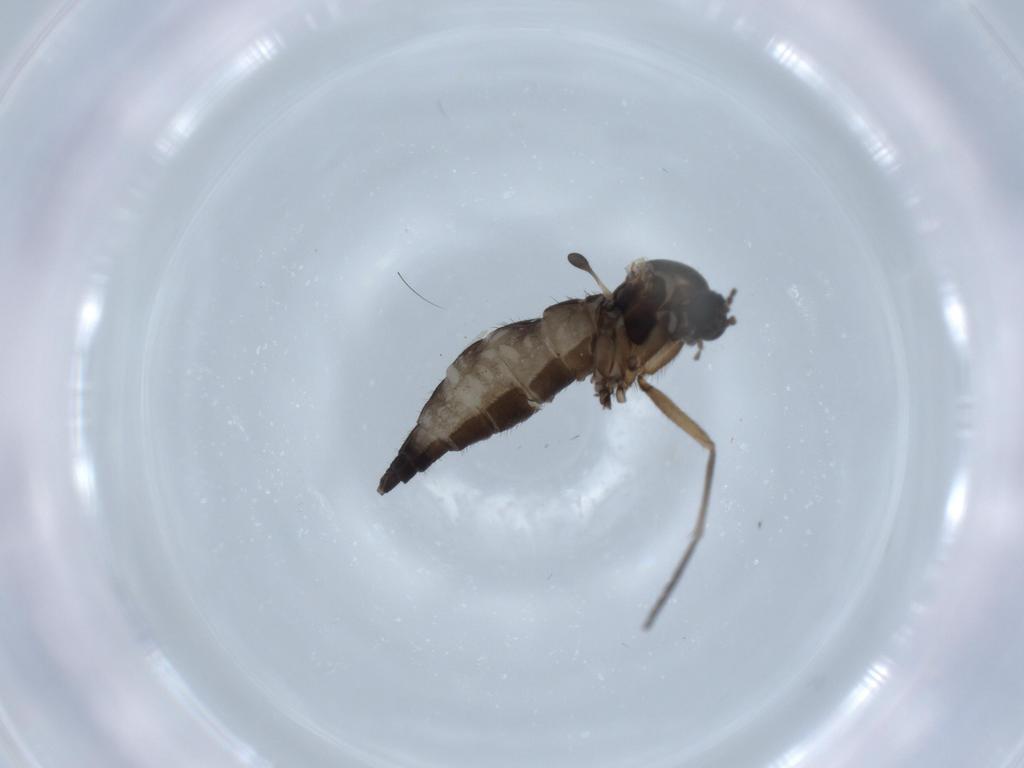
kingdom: Animalia
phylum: Arthropoda
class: Insecta
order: Diptera
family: Sciaridae
